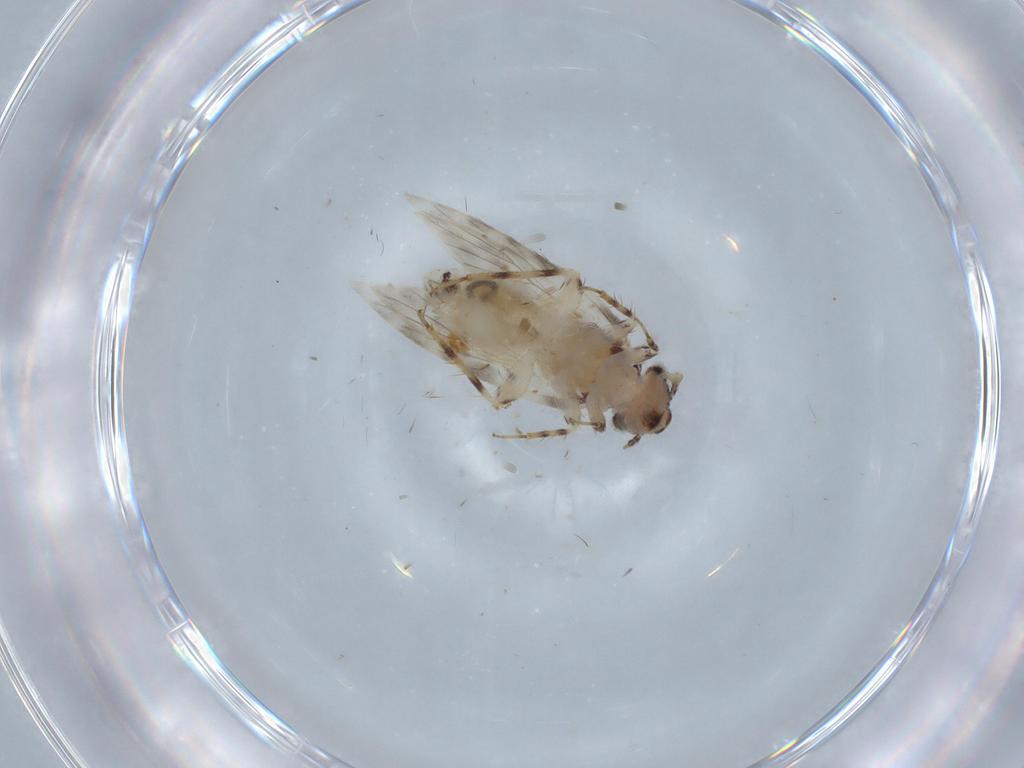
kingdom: Animalia
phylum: Arthropoda
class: Insecta
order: Psocodea
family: Lepidopsocidae
